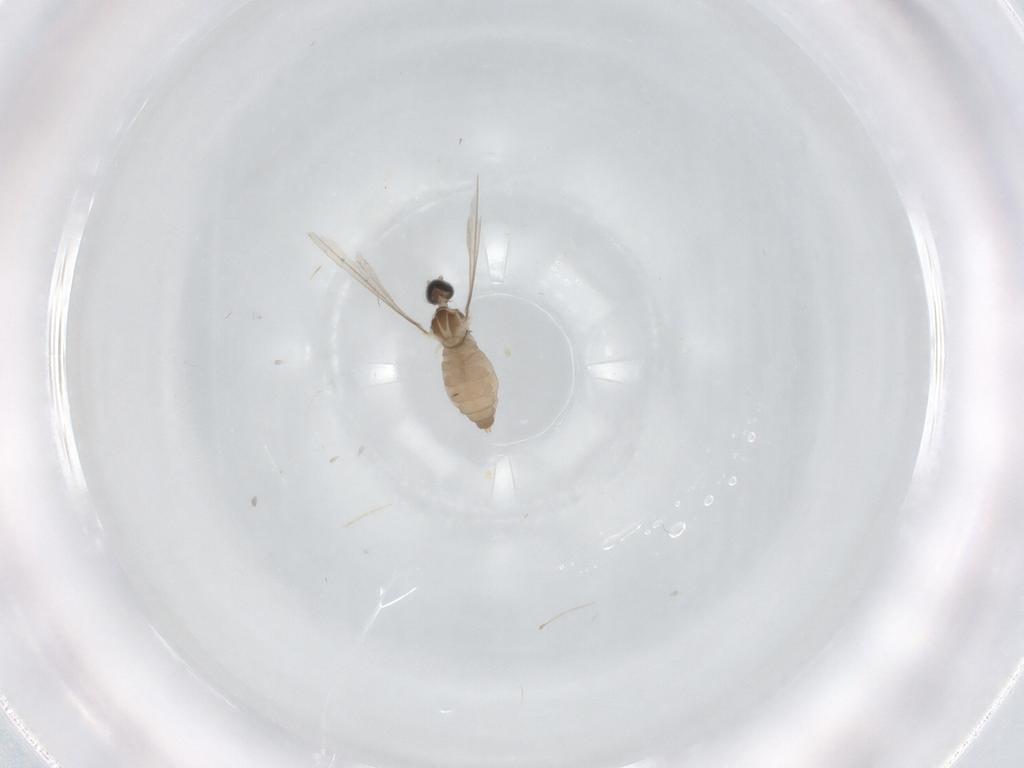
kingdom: Animalia
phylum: Arthropoda
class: Insecta
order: Diptera
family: Cecidomyiidae
